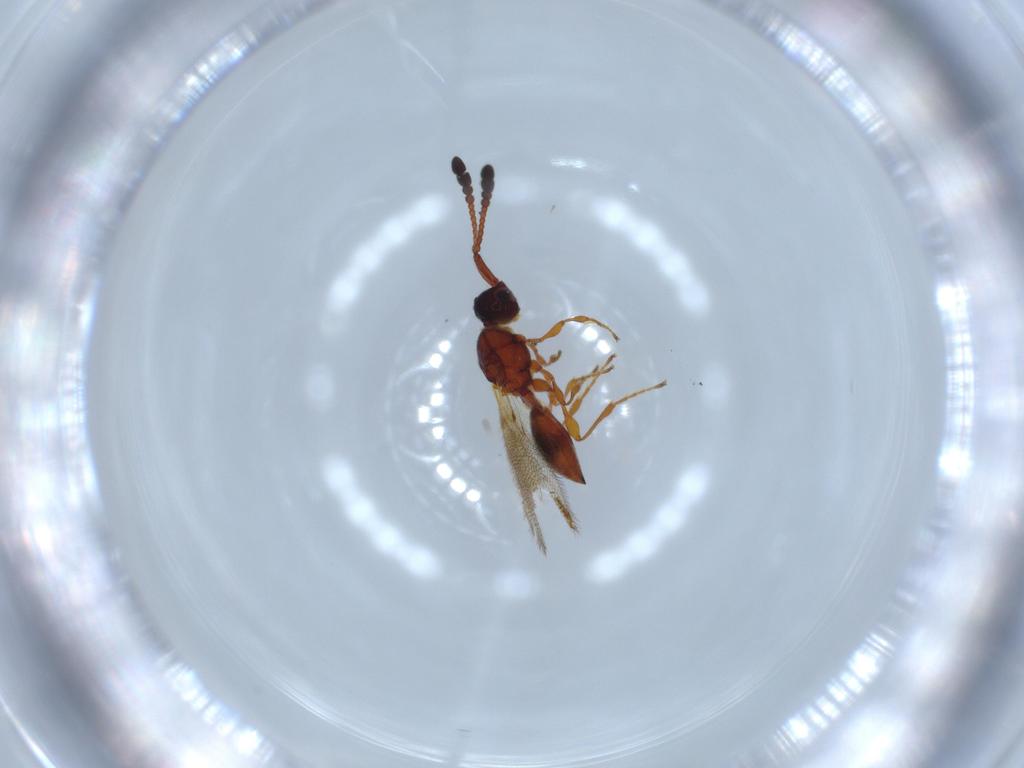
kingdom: Animalia
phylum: Arthropoda
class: Insecta
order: Hymenoptera
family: Diapriidae
